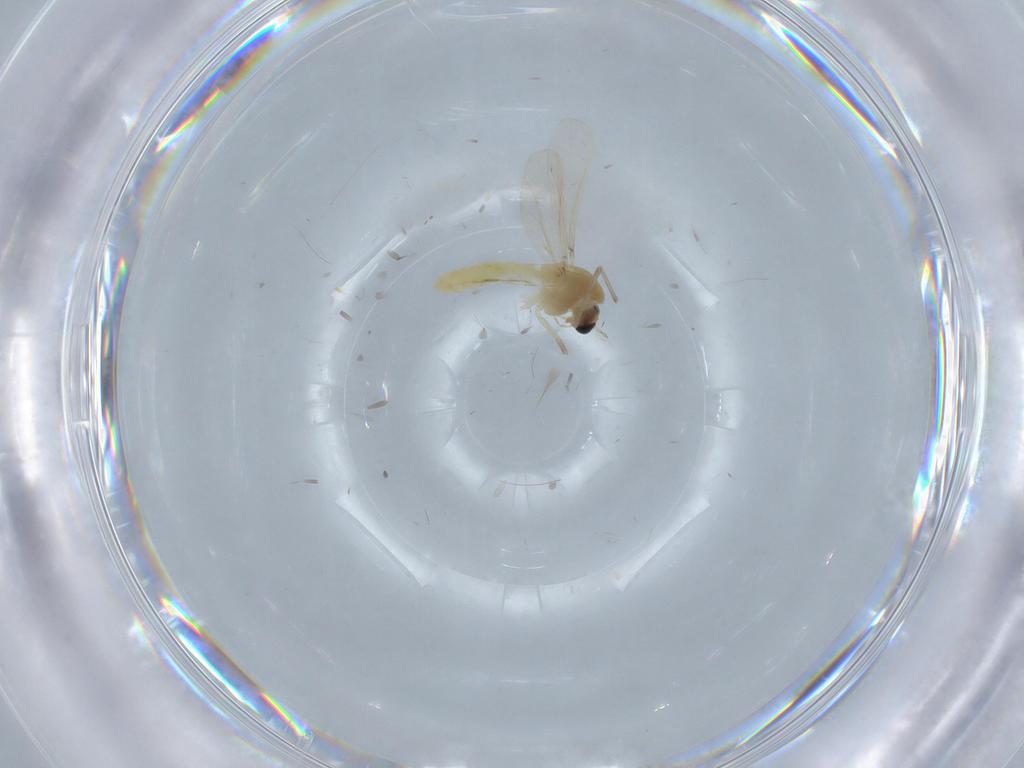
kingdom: Animalia
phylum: Arthropoda
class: Insecta
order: Diptera
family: Chironomidae
